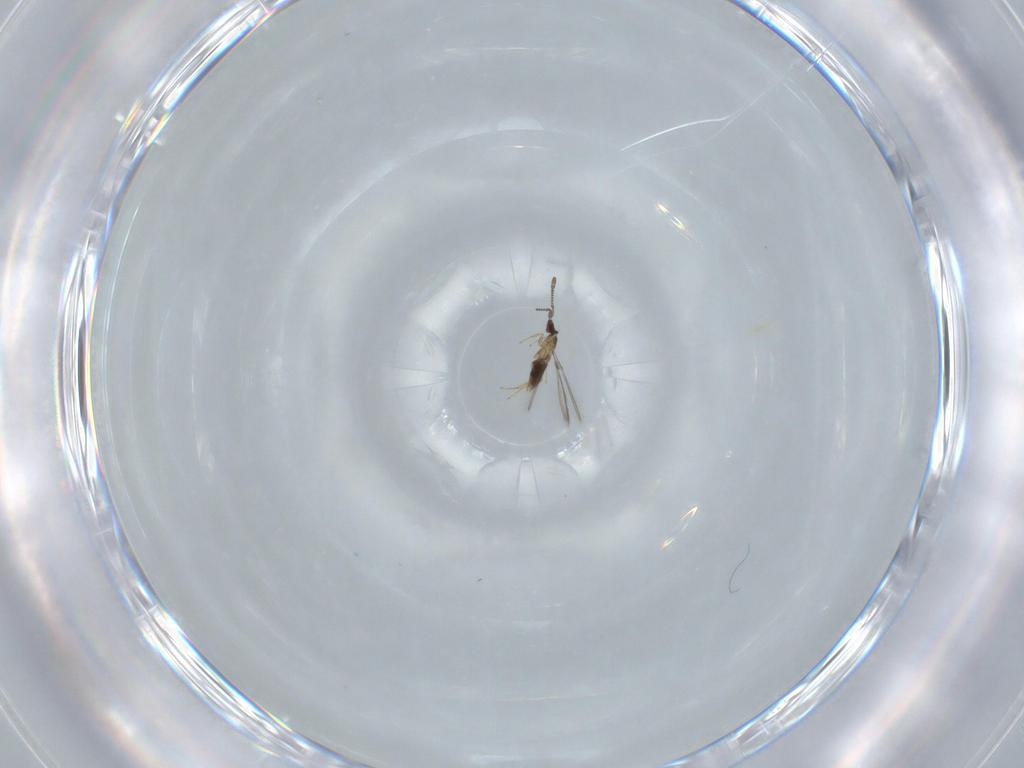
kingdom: Animalia
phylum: Arthropoda
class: Insecta
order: Hymenoptera
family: Mymaridae
